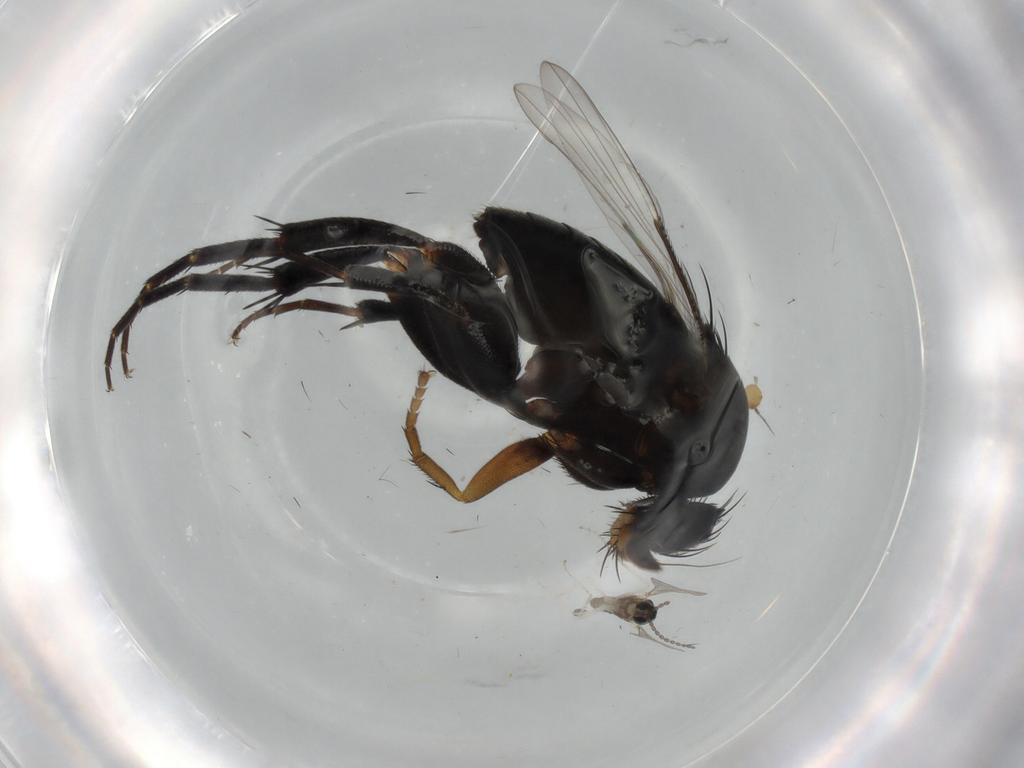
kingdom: Animalia
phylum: Arthropoda
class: Insecta
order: Diptera
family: Phoridae
